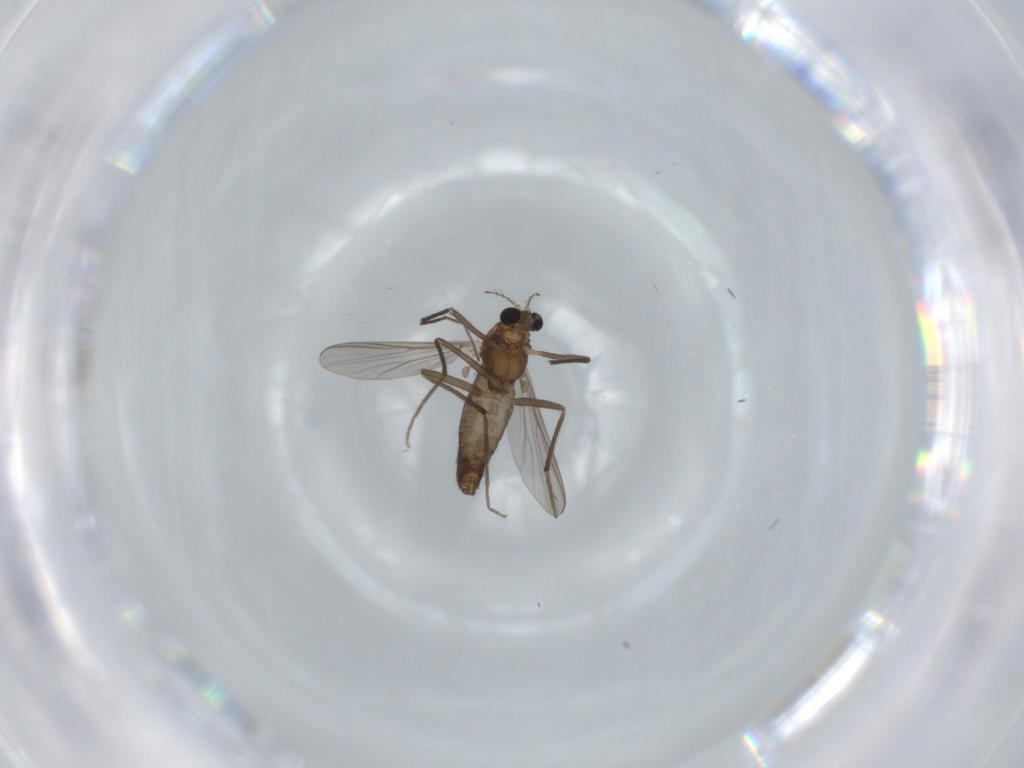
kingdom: Animalia
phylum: Arthropoda
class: Insecta
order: Diptera
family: Chironomidae
